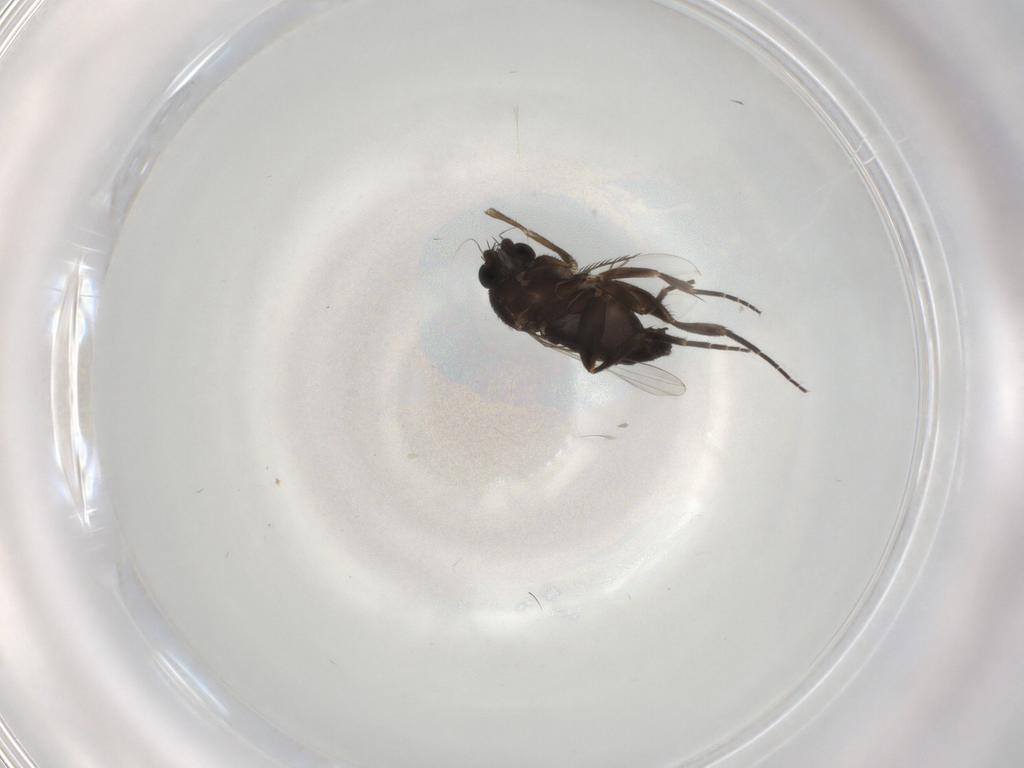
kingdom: Animalia
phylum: Arthropoda
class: Insecta
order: Diptera
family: Phoridae
